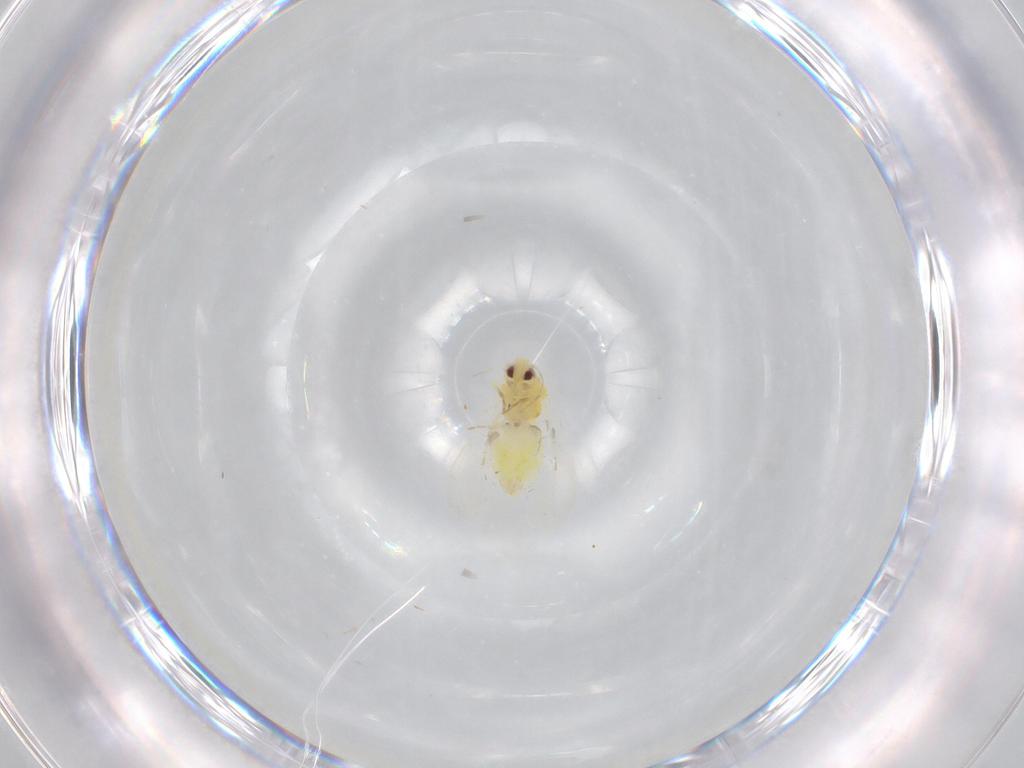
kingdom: Animalia
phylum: Arthropoda
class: Insecta
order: Hemiptera
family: Aleyrodidae
